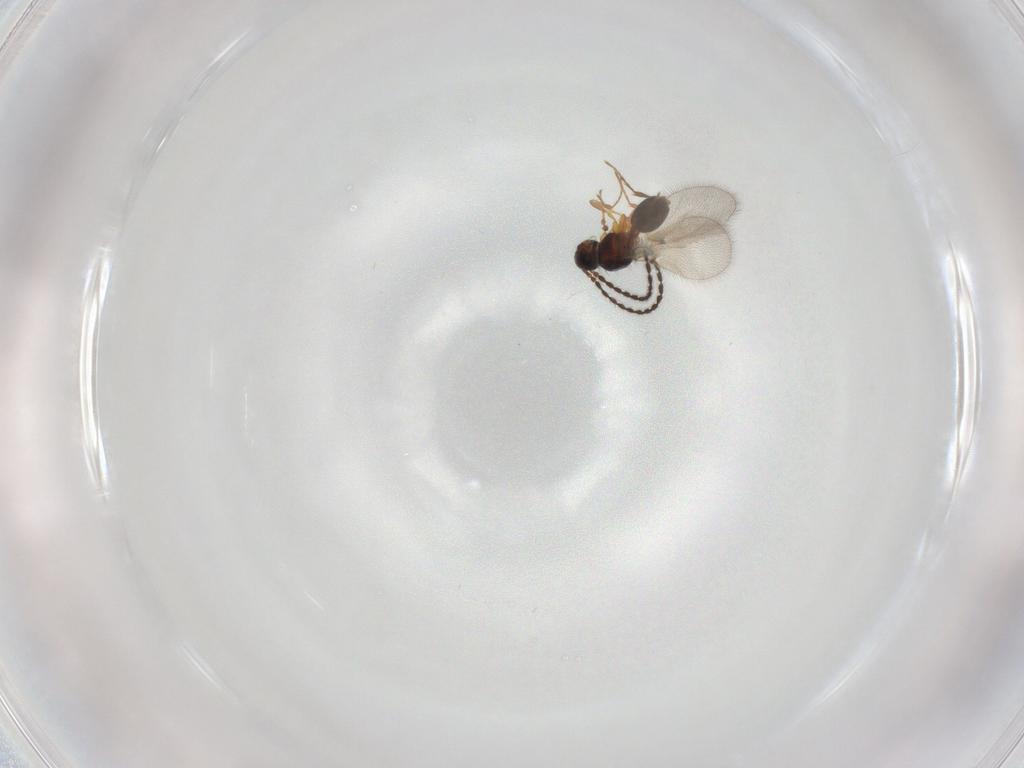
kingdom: Animalia
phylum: Arthropoda
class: Insecta
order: Hymenoptera
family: Diapriidae
